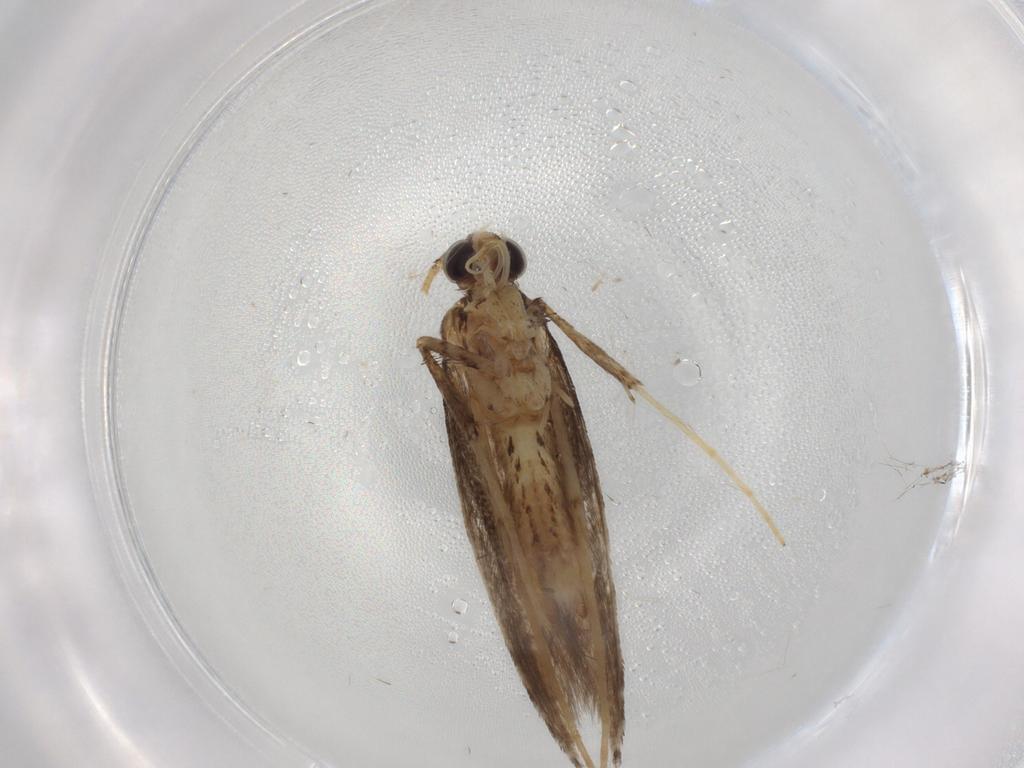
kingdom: Animalia
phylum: Arthropoda
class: Insecta
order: Lepidoptera
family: Gracillariidae
